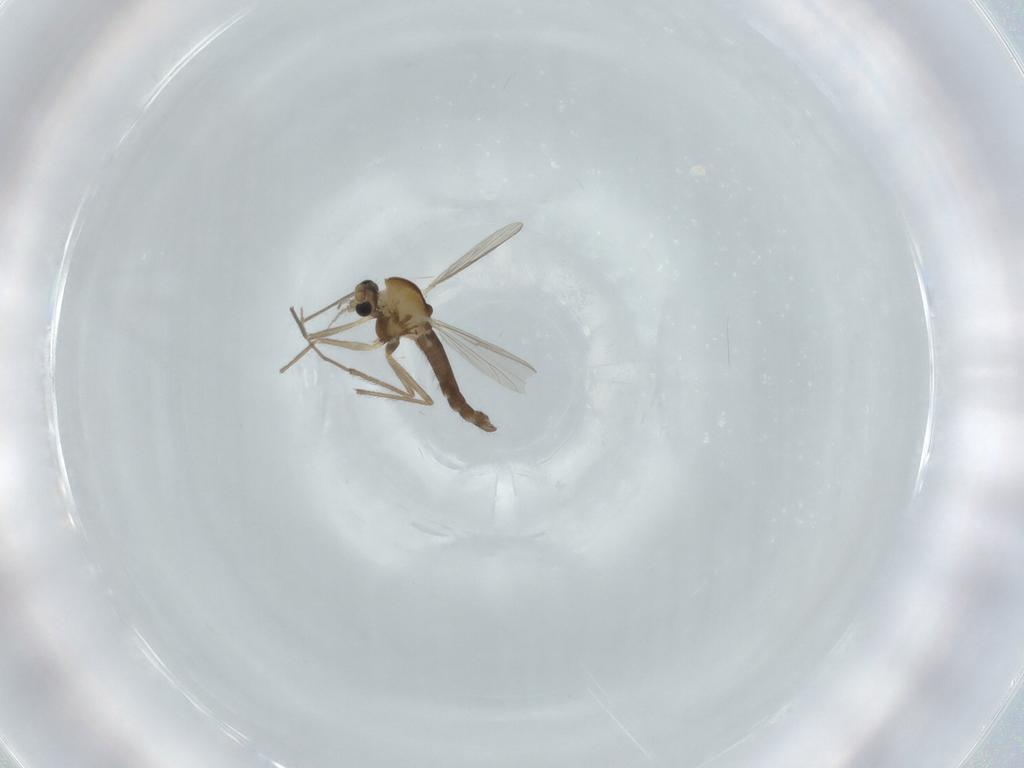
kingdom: Animalia
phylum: Arthropoda
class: Insecta
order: Diptera
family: Chironomidae
